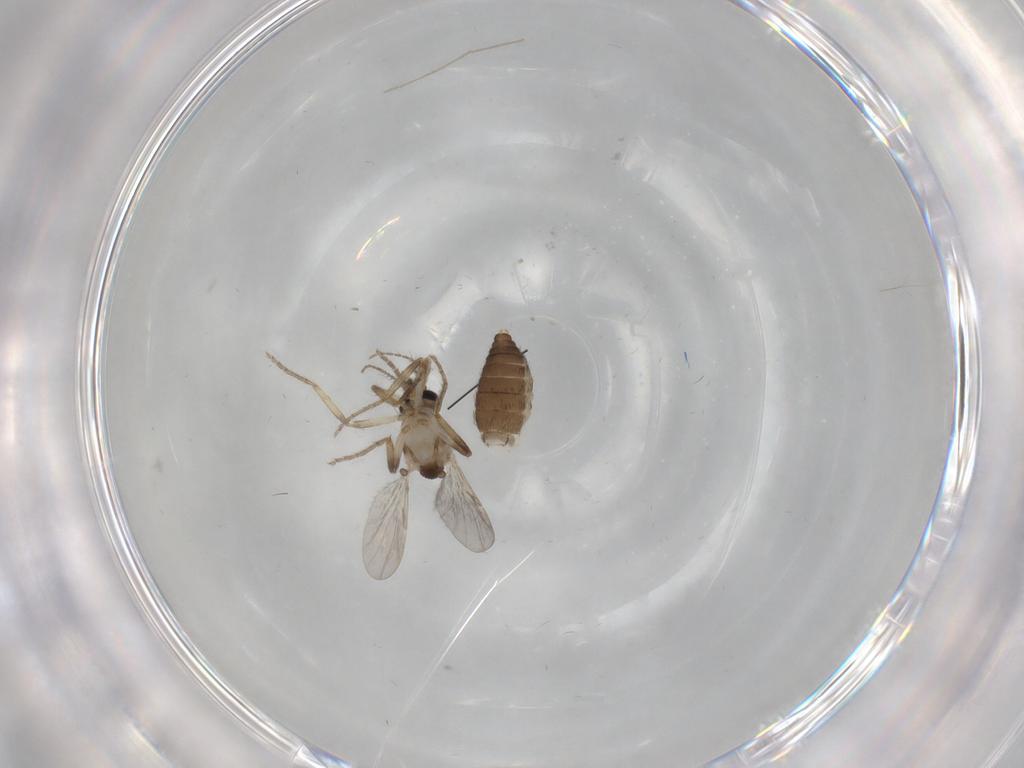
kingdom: Animalia
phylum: Arthropoda
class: Insecta
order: Diptera
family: Ceratopogonidae
